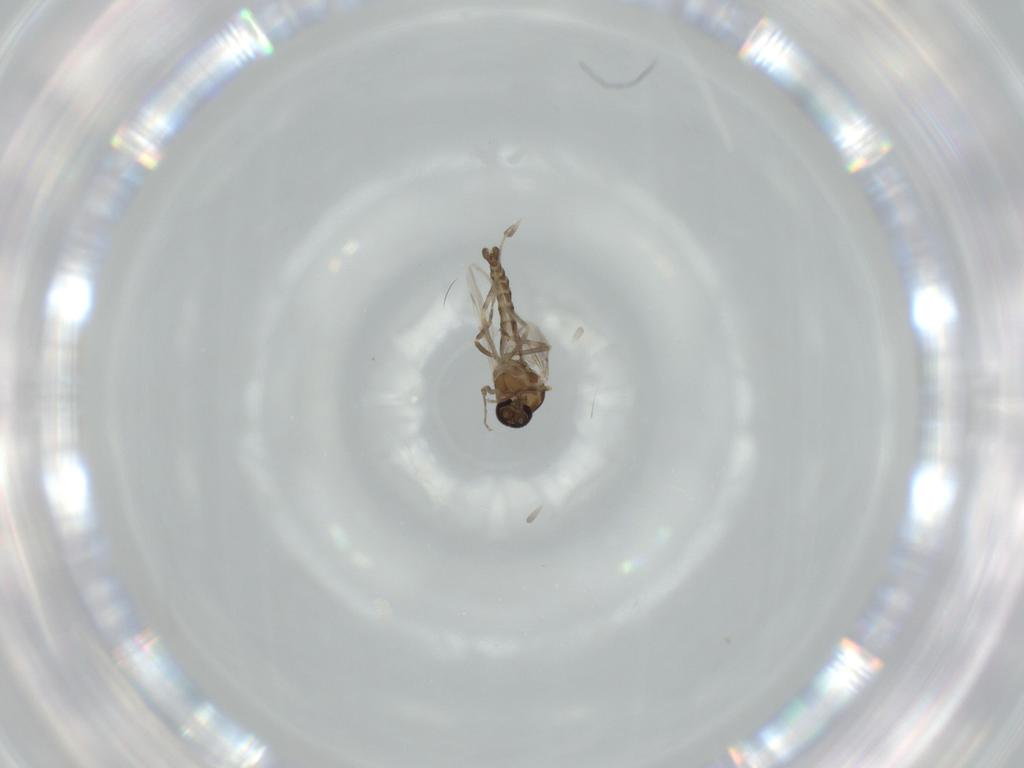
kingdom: Animalia
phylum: Arthropoda
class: Insecta
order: Diptera
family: Ceratopogonidae
